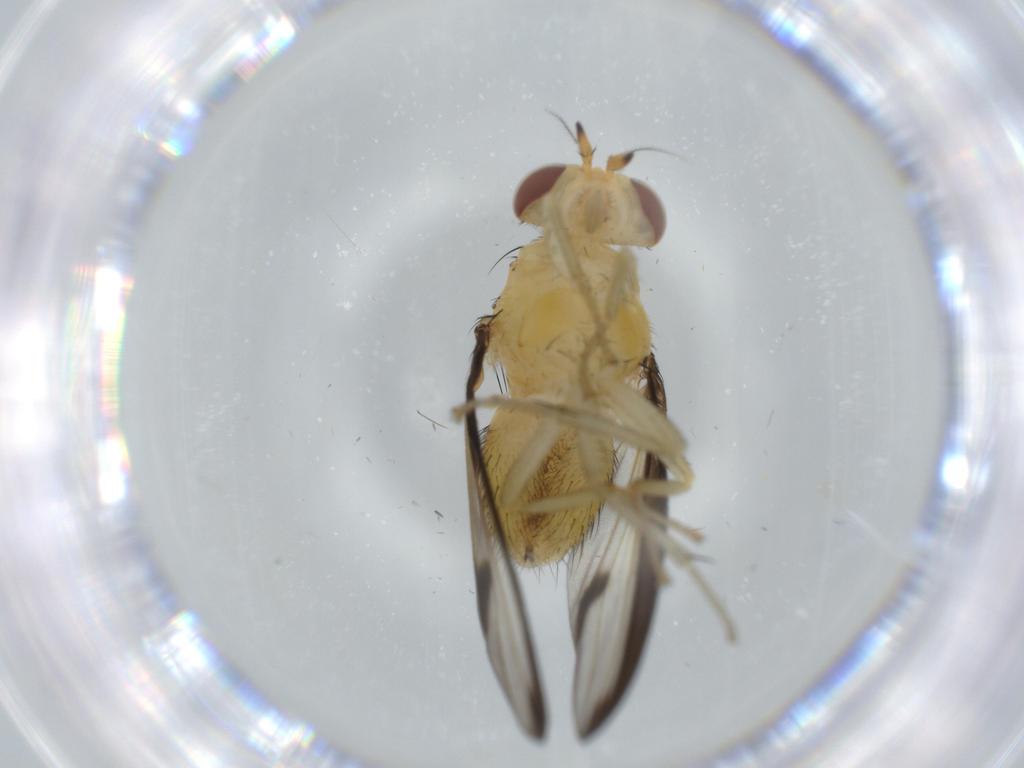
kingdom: Animalia
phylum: Arthropoda
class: Insecta
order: Diptera
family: Lauxaniidae
